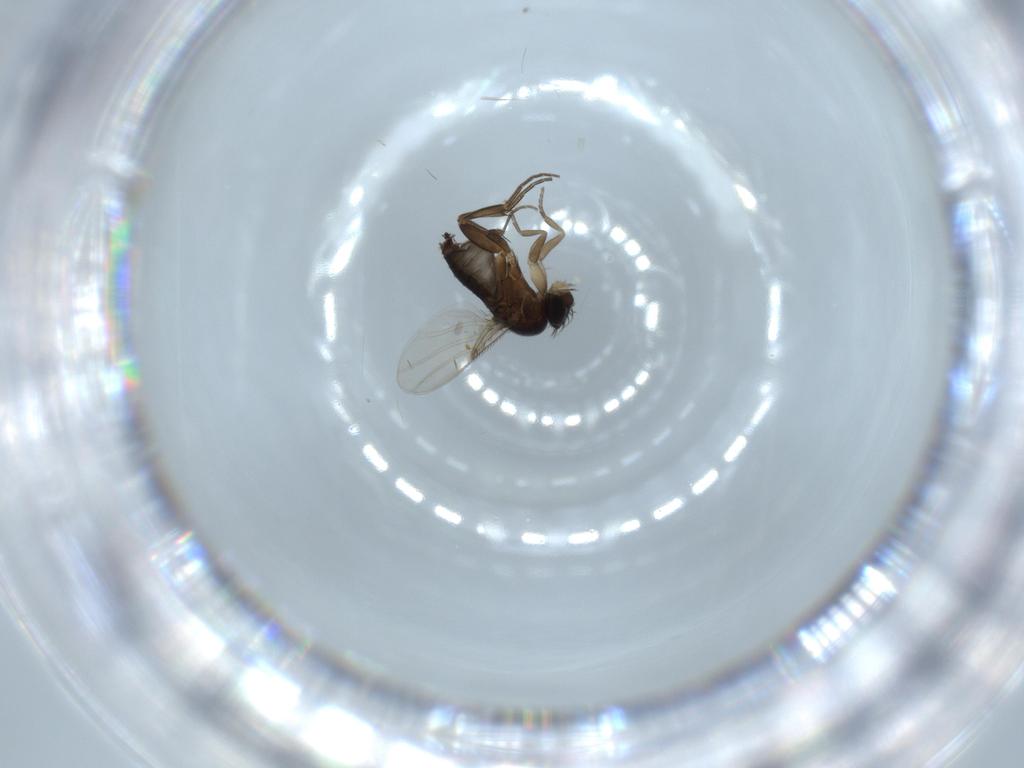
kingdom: Animalia
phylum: Arthropoda
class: Insecta
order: Diptera
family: Phoridae
